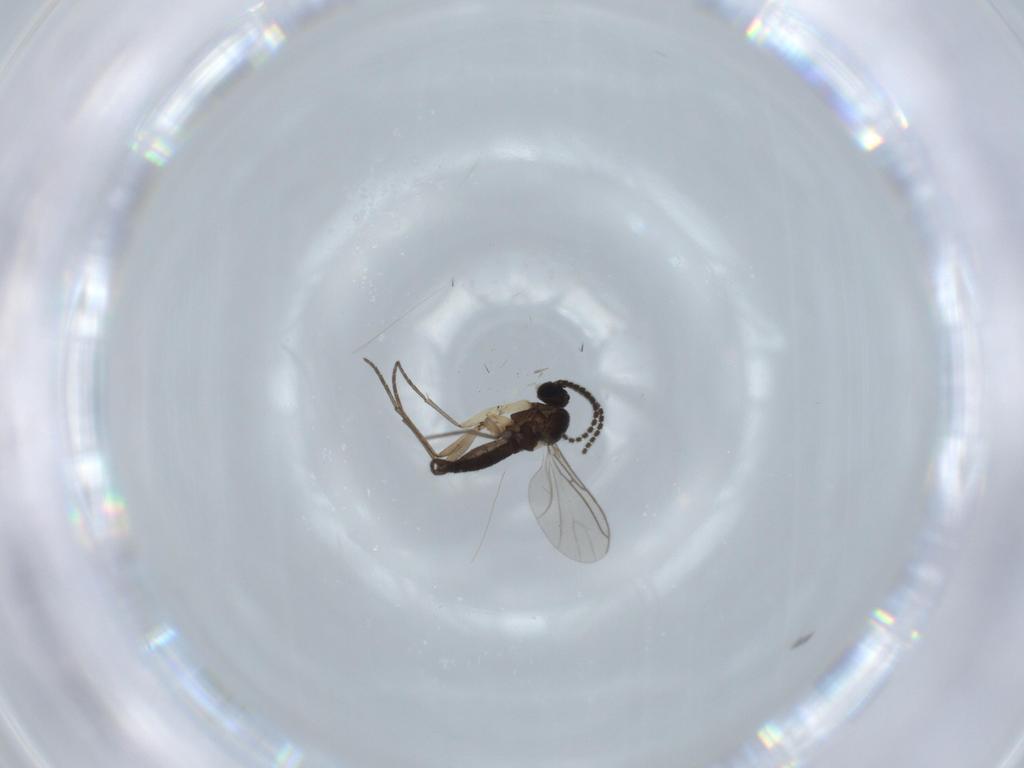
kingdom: Animalia
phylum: Arthropoda
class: Insecta
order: Diptera
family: Sciaridae
